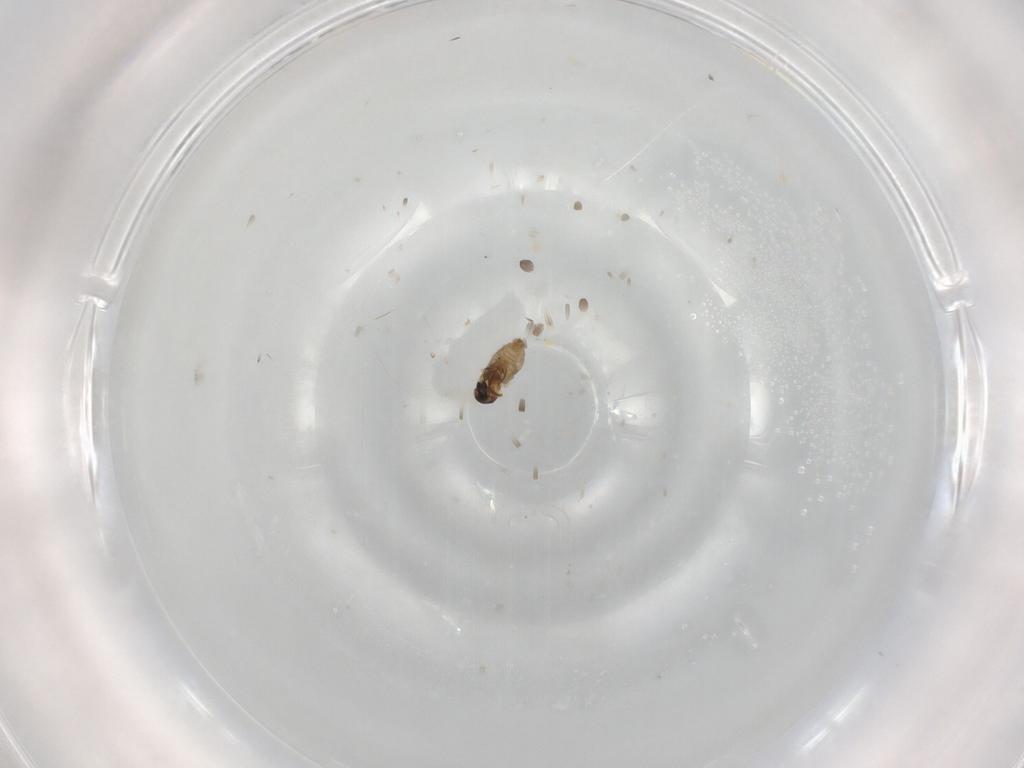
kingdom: Animalia
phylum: Arthropoda
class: Insecta
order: Diptera
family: Cecidomyiidae
